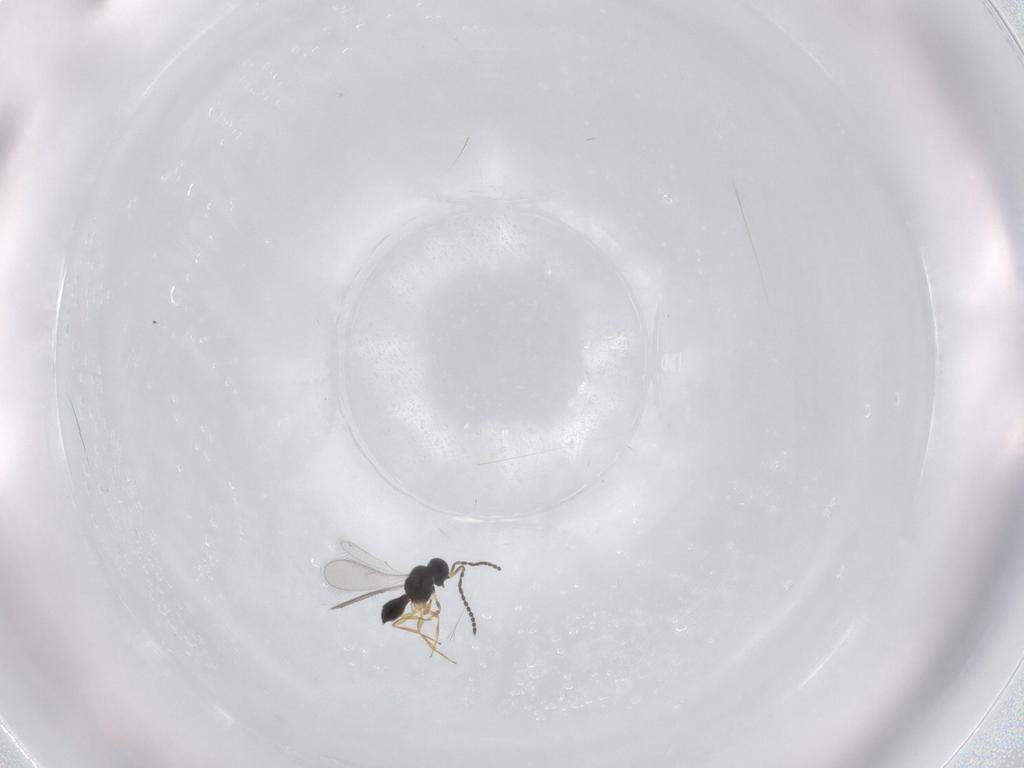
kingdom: Animalia
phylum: Arthropoda
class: Insecta
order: Hymenoptera
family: Scelionidae
